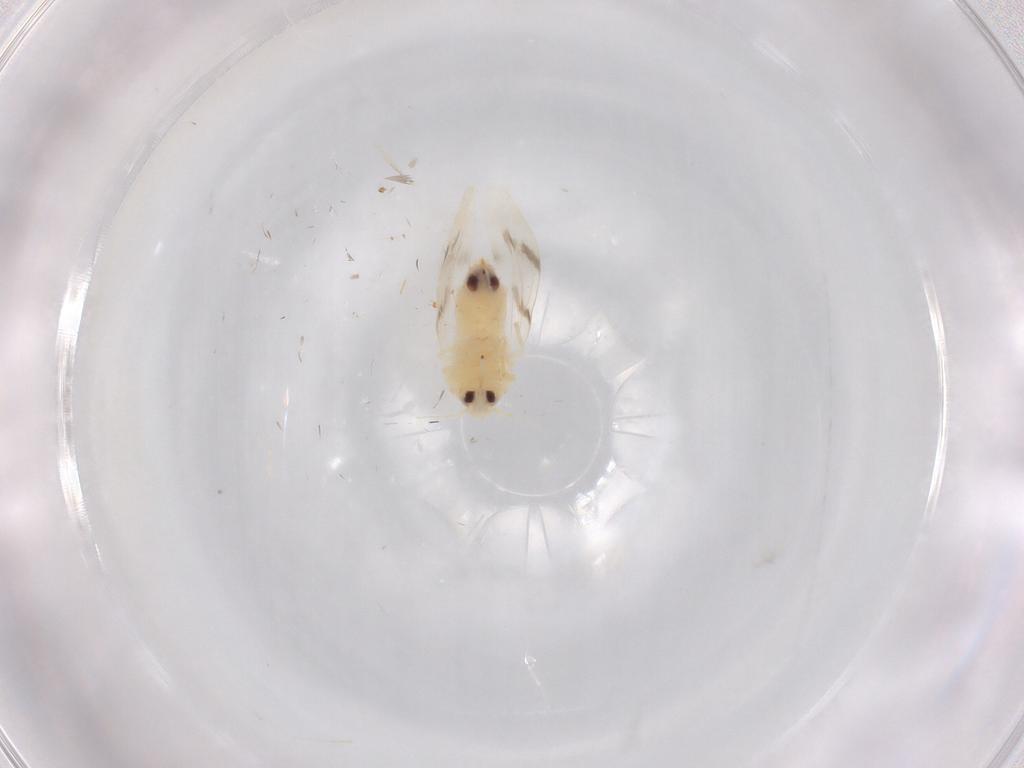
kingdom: Animalia
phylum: Arthropoda
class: Insecta
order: Hemiptera
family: Aleyrodidae
